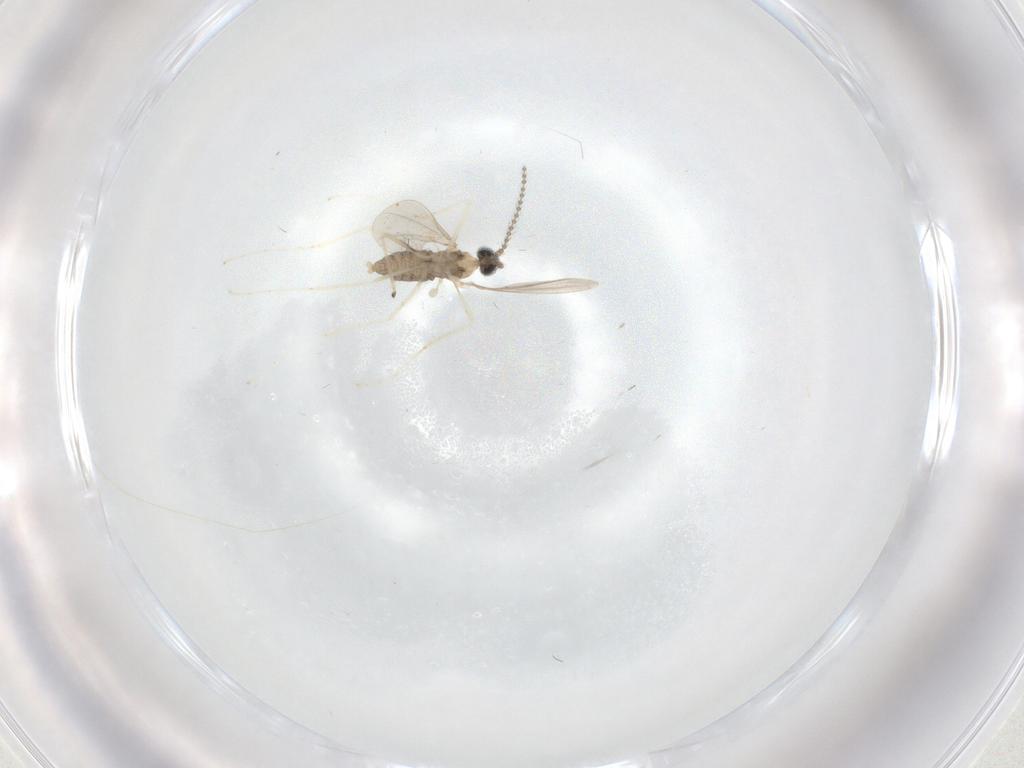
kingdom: Animalia
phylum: Arthropoda
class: Insecta
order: Diptera
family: Cecidomyiidae
